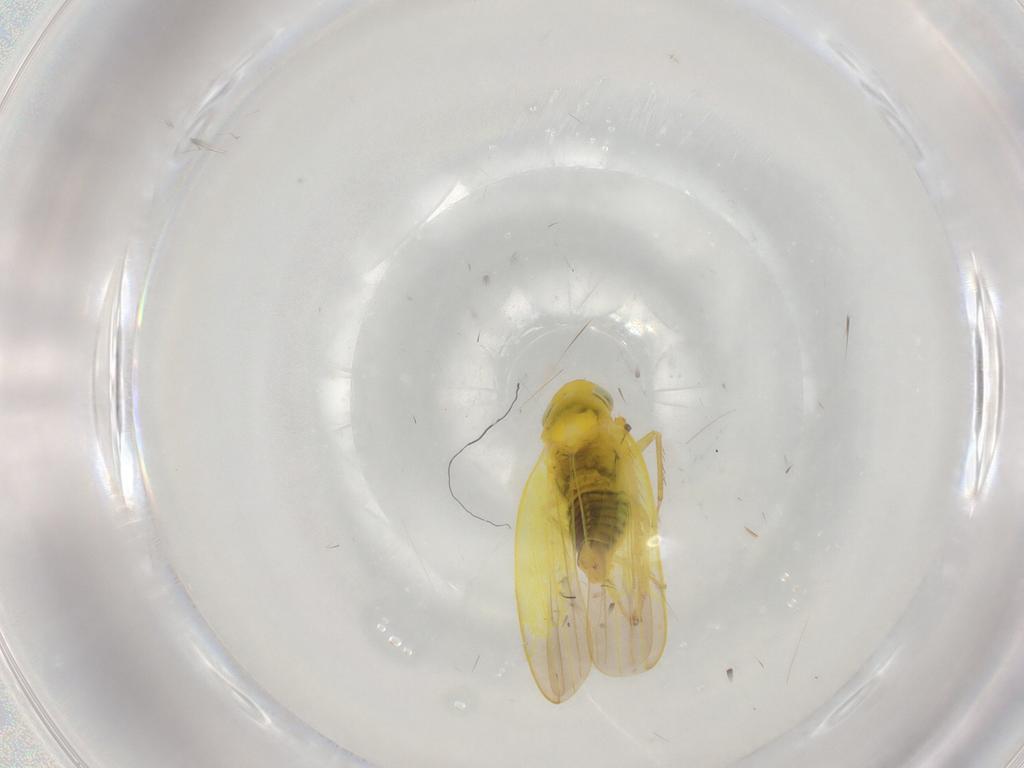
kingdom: Animalia
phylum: Arthropoda
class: Insecta
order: Hemiptera
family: Cicadellidae
